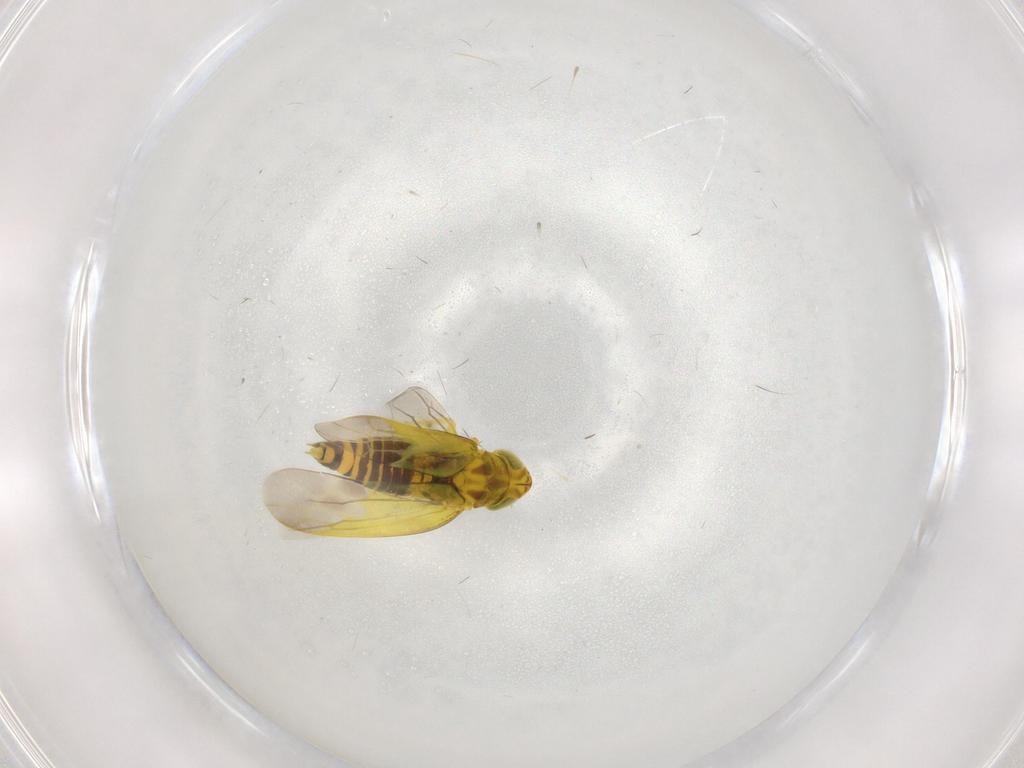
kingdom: Animalia
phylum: Arthropoda
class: Insecta
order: Hemiptera
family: Cicadellidae
